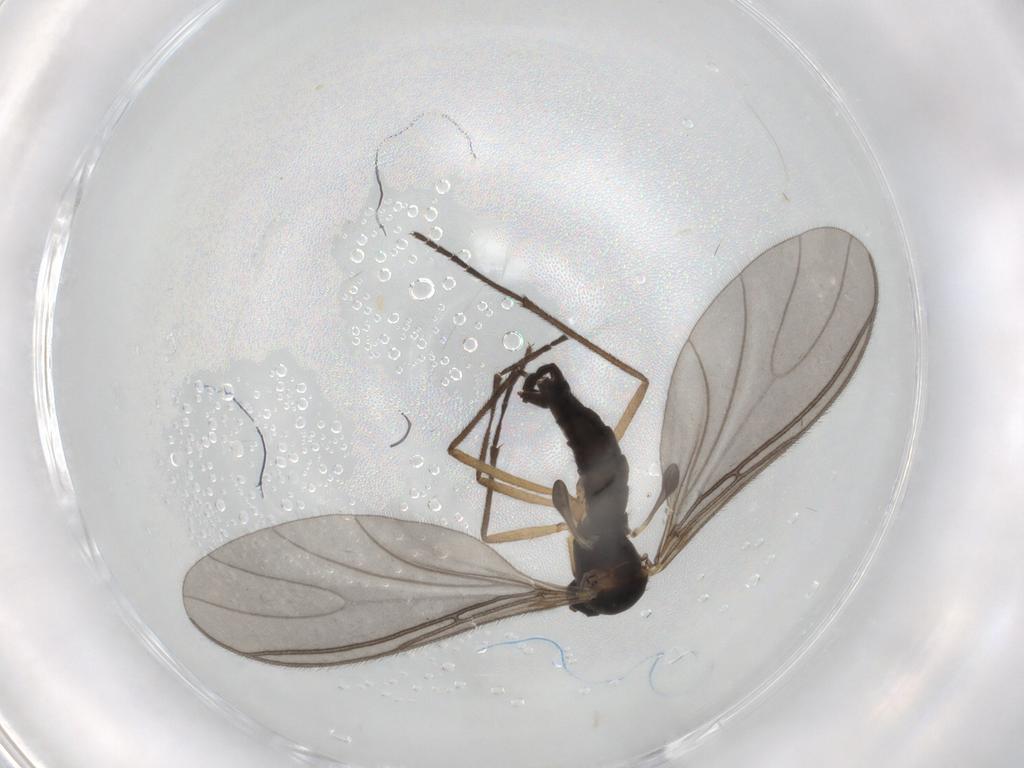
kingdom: Animalia
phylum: Arthropoda
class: Insecta
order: Diptera
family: Sciaridae
